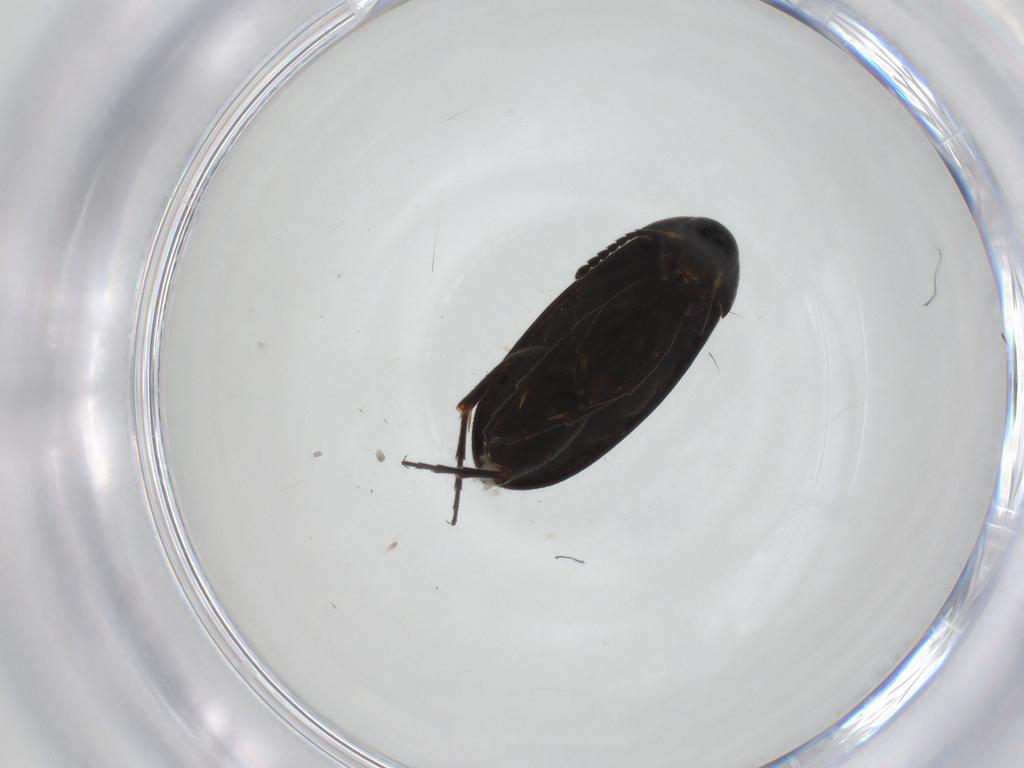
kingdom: Animalia
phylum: Arthropoda
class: Insecta
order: Coleoptera
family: Scraptiidae
